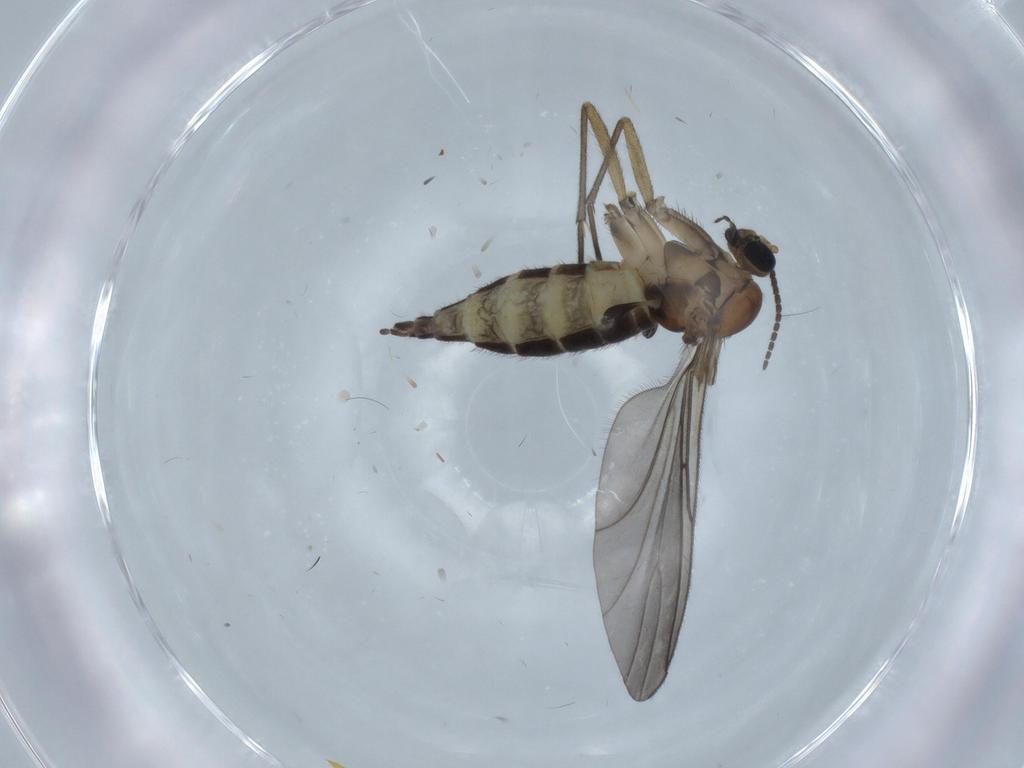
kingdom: Animalia
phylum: Arthropoda
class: Insecta
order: Diptera
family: Sciaridae
